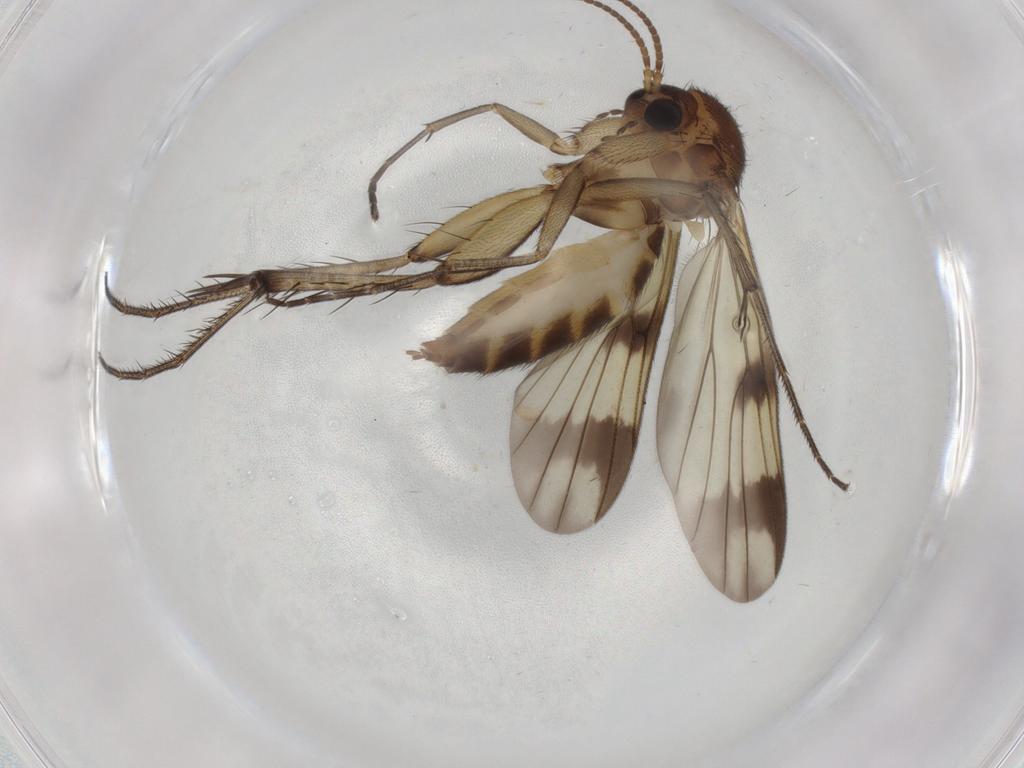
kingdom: Animalia
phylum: Arthropoda
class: Insecta
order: Diptera
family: Mycetophilidae
